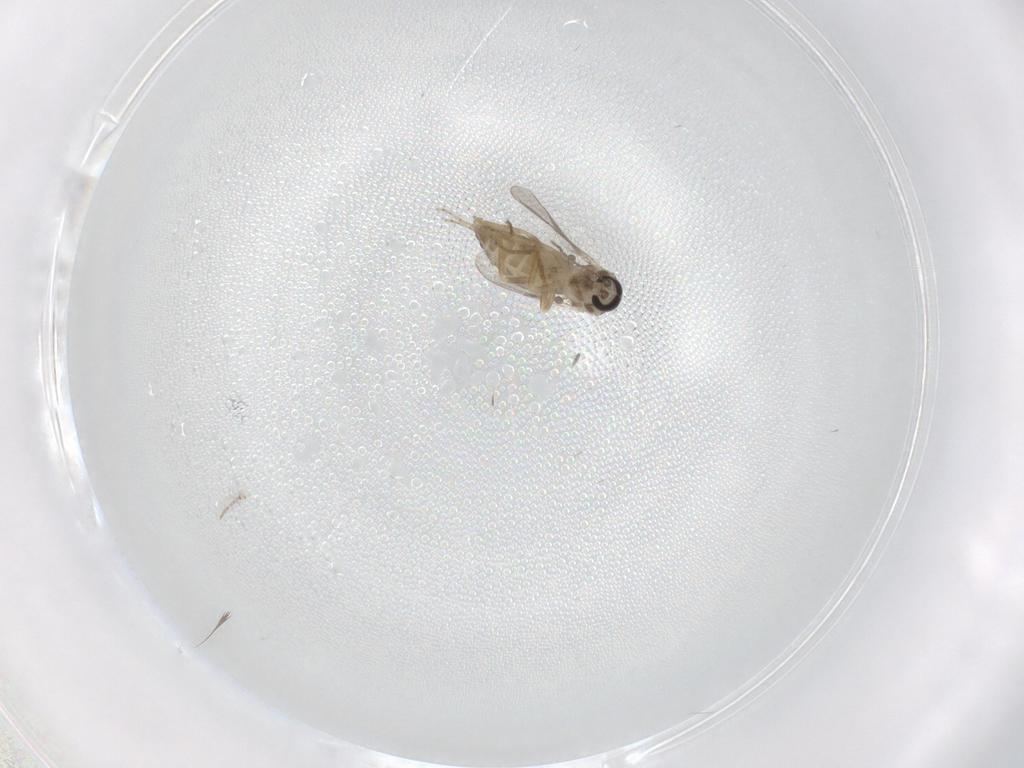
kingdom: Animalia
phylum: Arthropoda
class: Insecta
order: Diptera
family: Ceratopogonidae
